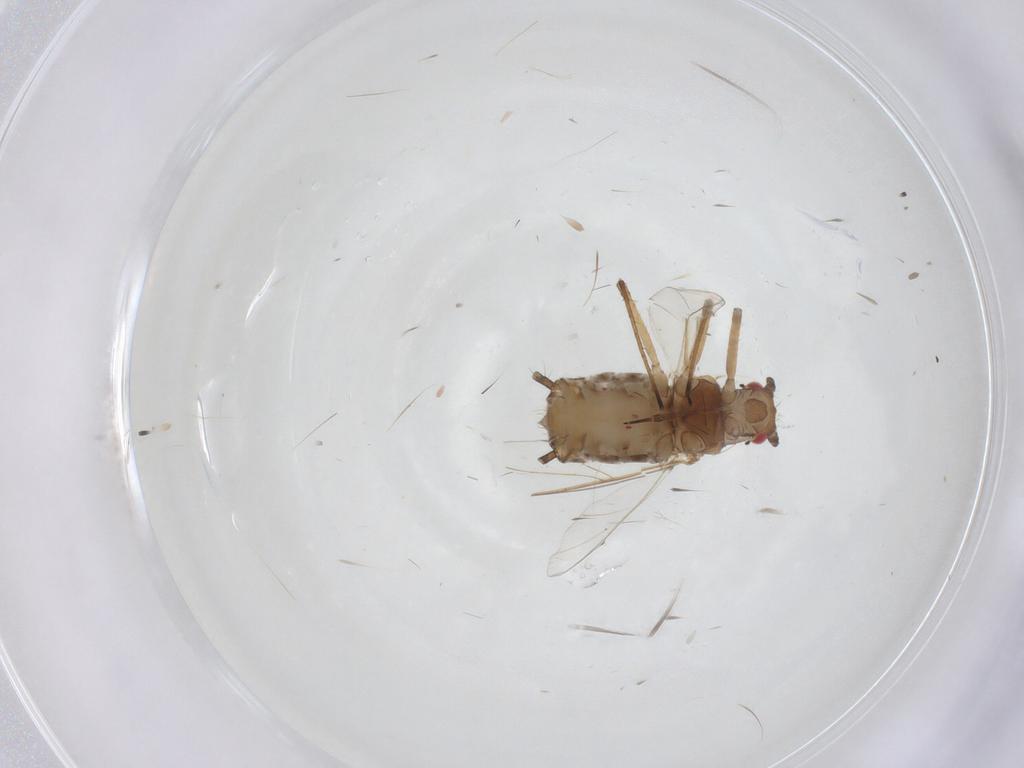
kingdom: Animalia
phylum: Arthropoda
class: Insecta
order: Hemiptera
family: Aphididae
